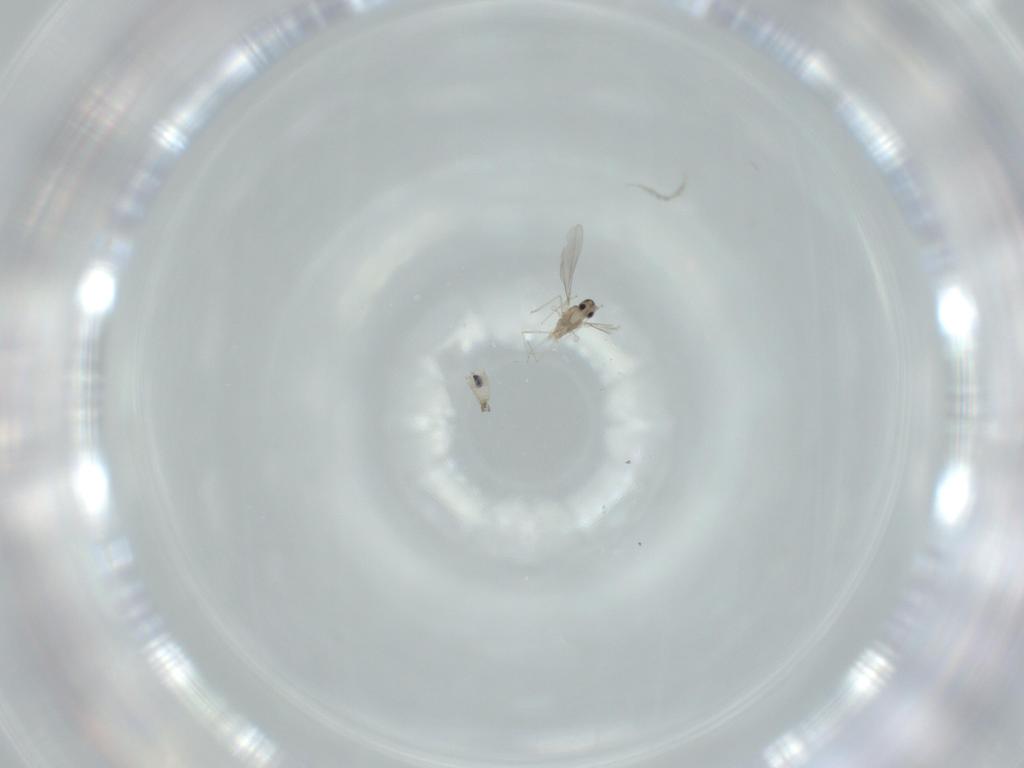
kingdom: Animalia
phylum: Arthropoda
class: Insecta
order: Diptera
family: Cecidomyiidae
